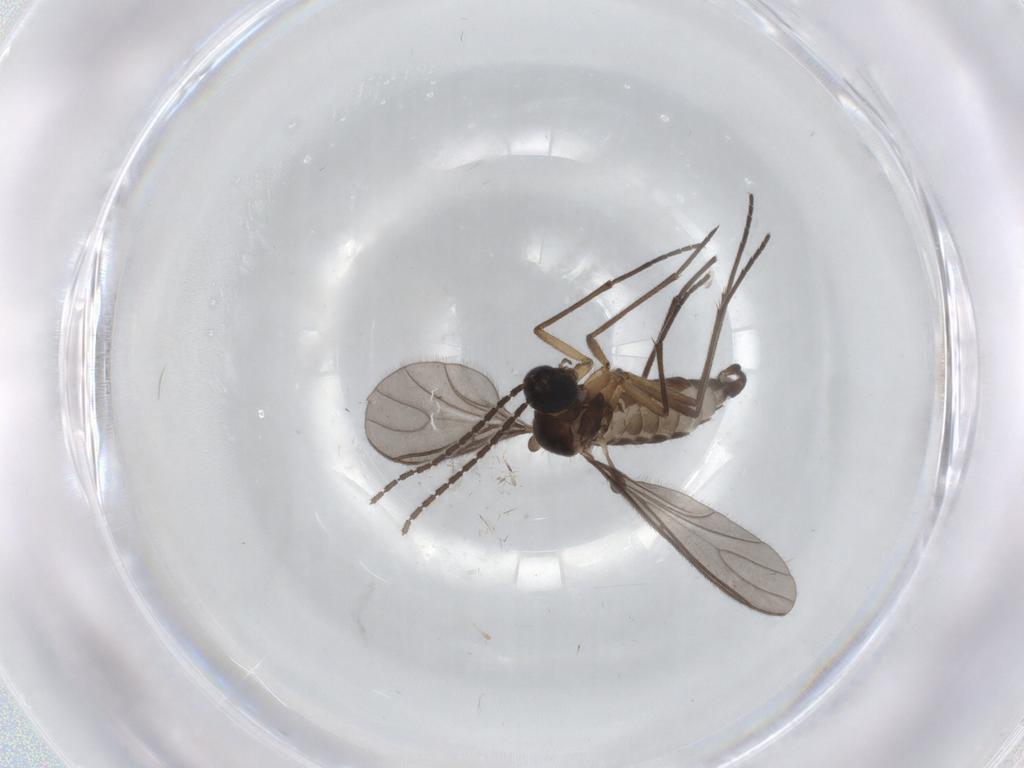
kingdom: Animalia
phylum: Arthropoda
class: Insecta
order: Diptera
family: Sciaridae
